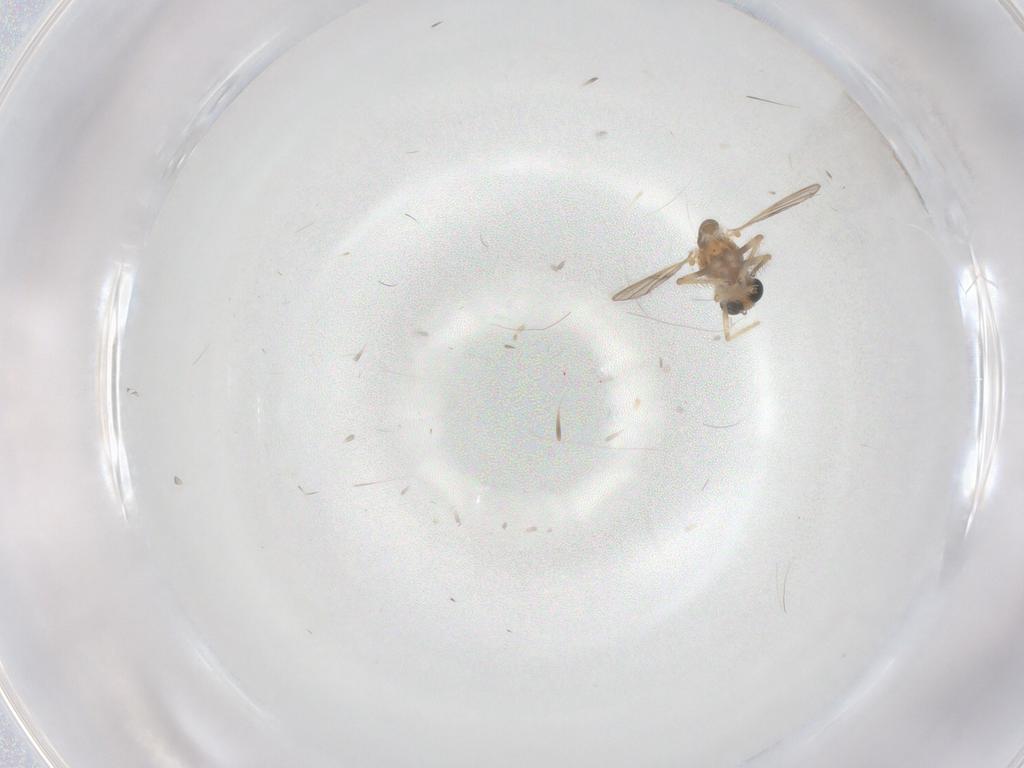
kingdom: Animalia
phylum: Arthropoda
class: Insecta
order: Diptera
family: Chironomidae
